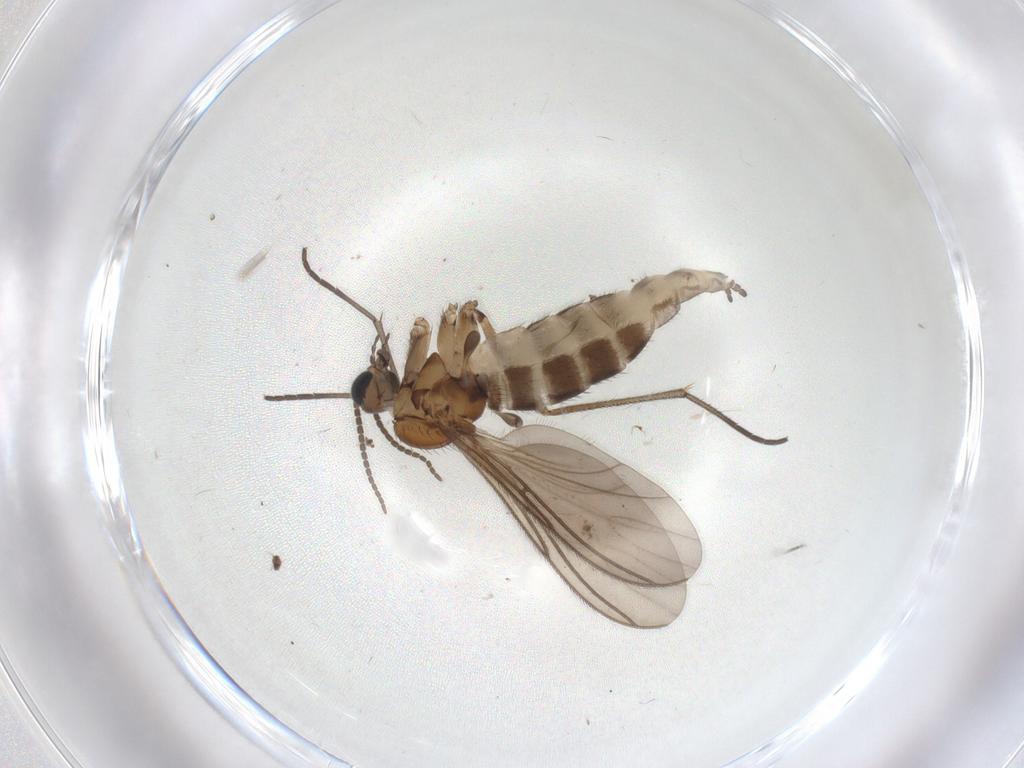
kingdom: Animalia
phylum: Arthropoda
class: Insecta
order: Diptera
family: Sciaridae
